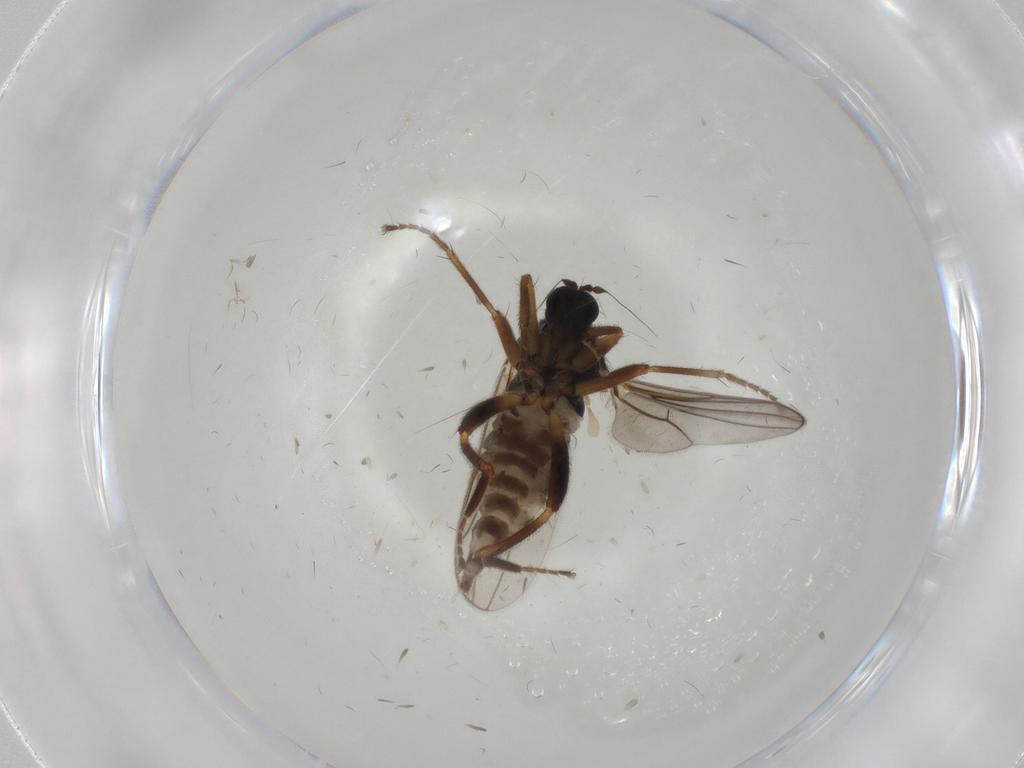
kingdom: Animalia
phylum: Arthropoda
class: Insecta
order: Diptera
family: Hybotidae
